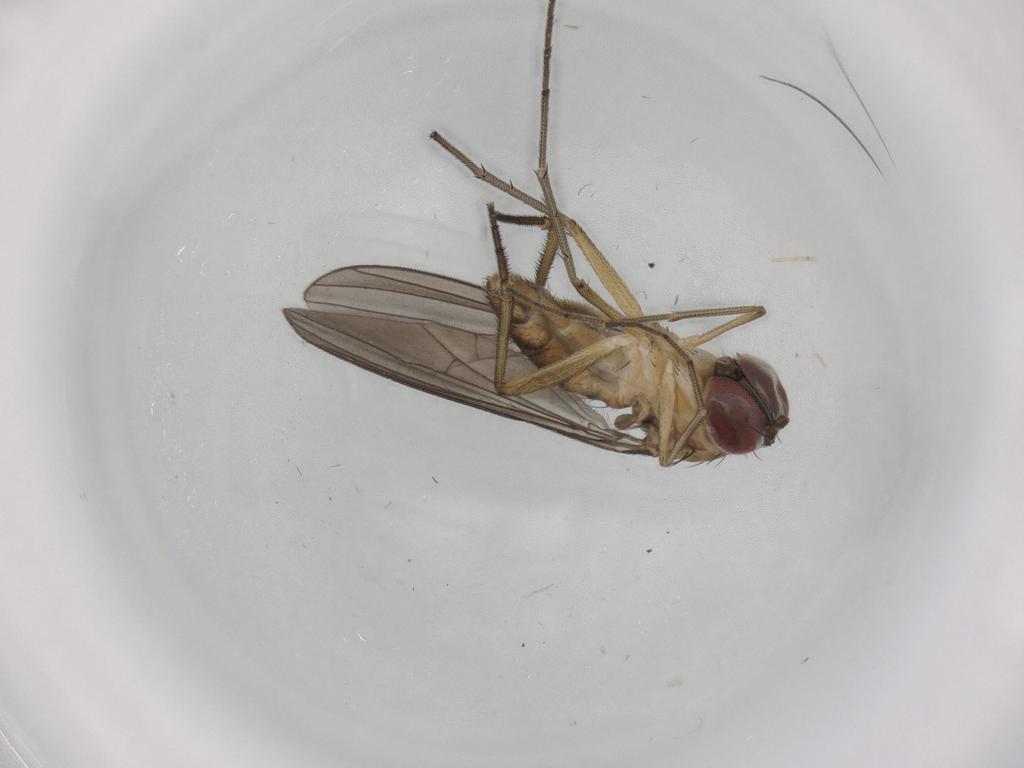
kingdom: Animalia
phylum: Arthropoda
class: Insecta
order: Diptera
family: Dolichopodidae
